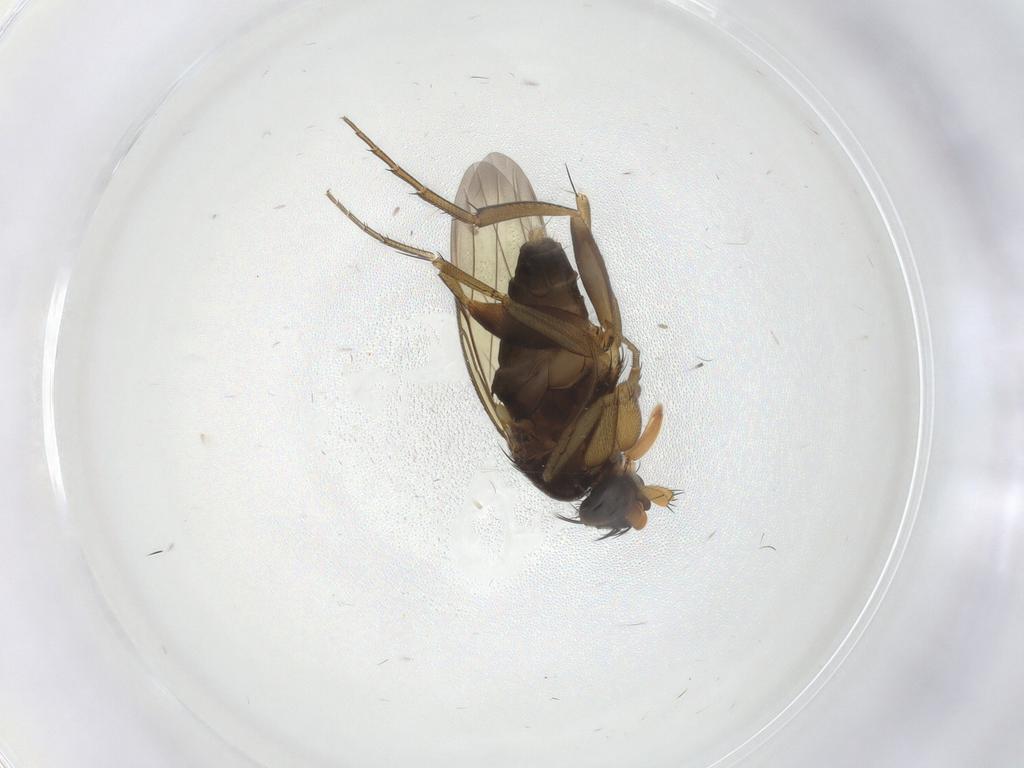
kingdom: Animalia
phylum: Arthropoda
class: Insecta
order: Diptera
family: Phoridae
